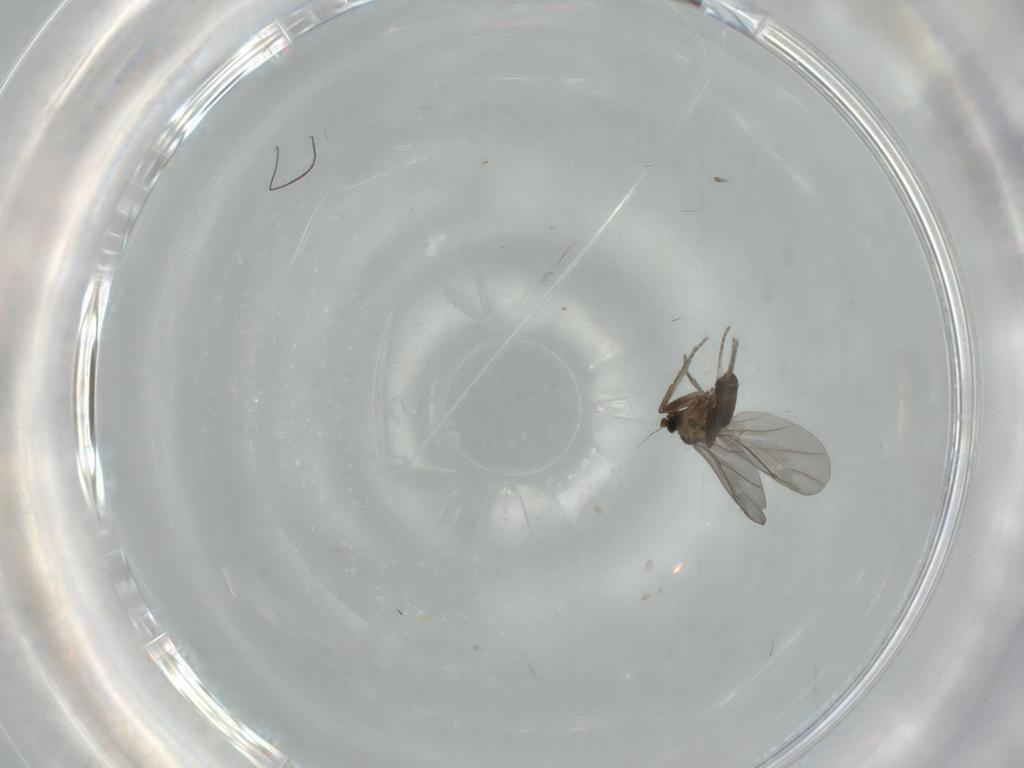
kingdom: Animalia
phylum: Arthropoda
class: Insecta
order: Diptera
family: Phoridae
